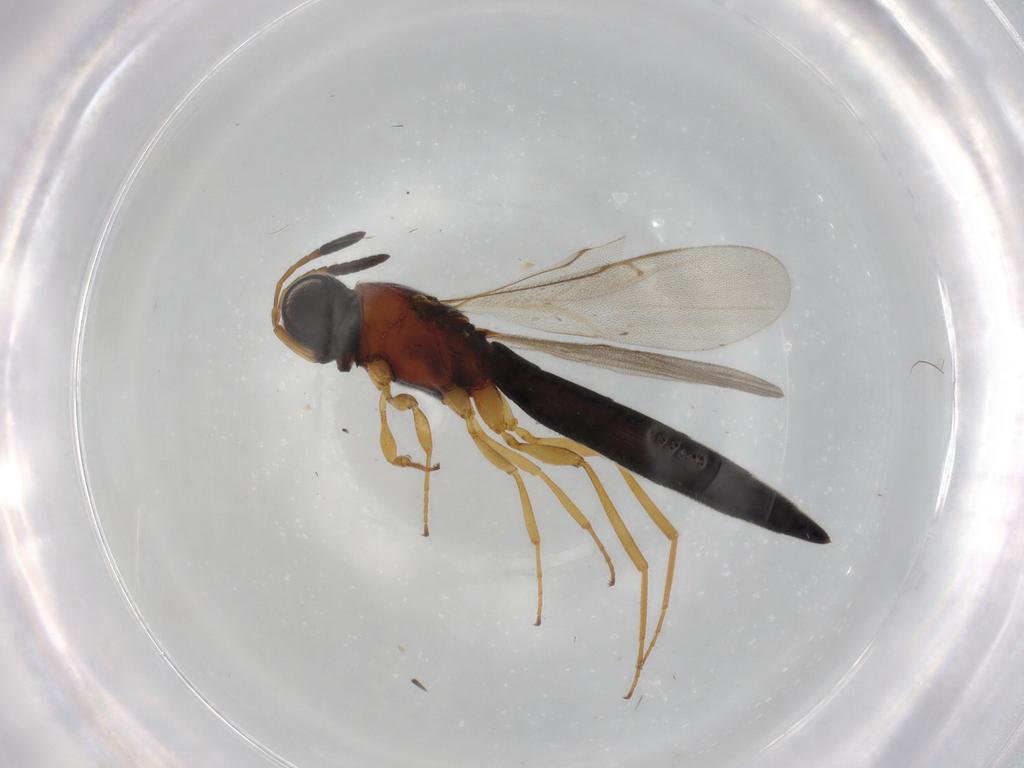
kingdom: Animalia
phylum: Arthropoda
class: Insecta
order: Hymenoptera
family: Scelionidae
